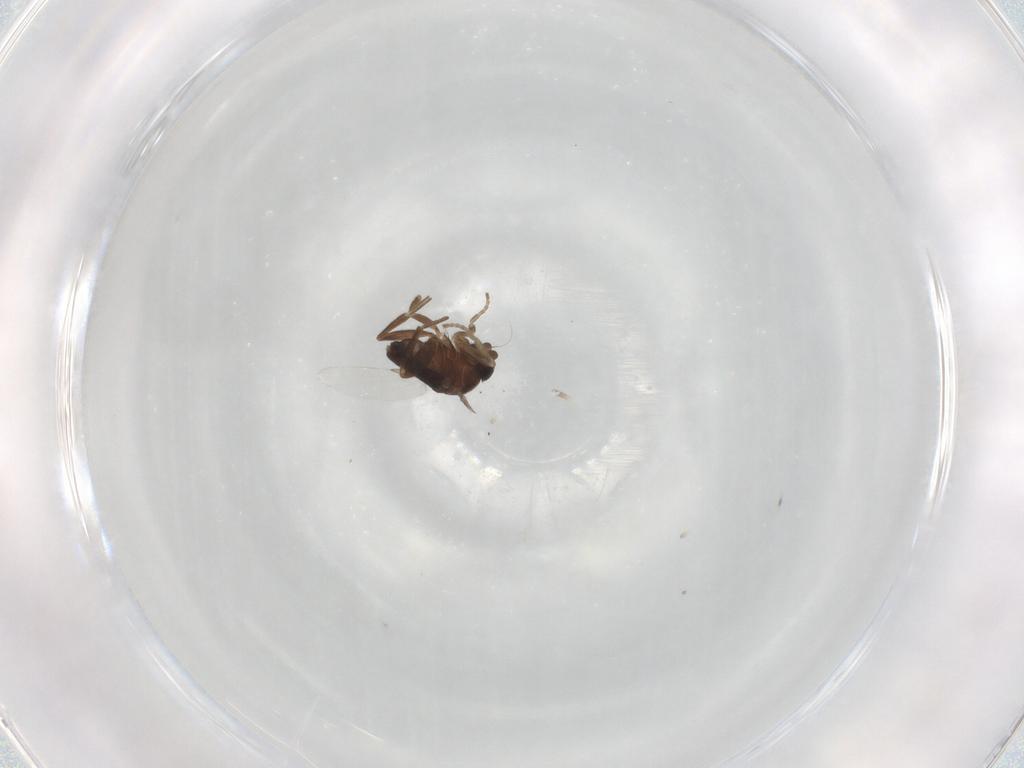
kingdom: Animalia
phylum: Arthropoda
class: Insecta
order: Diptera
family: Phoridae
